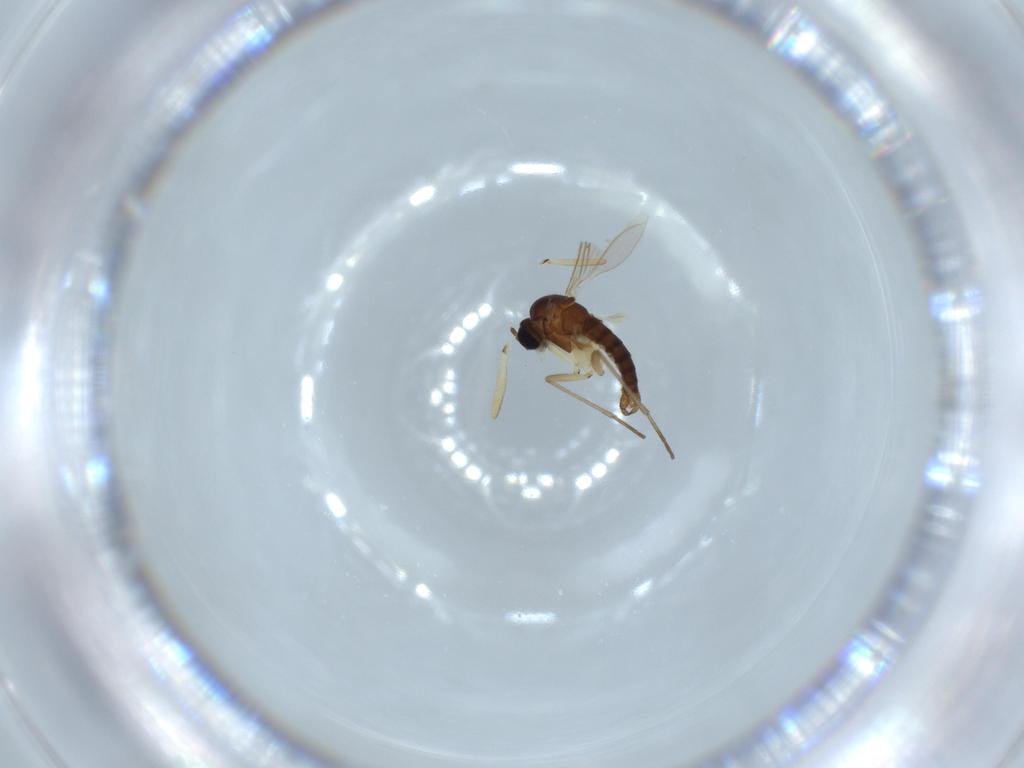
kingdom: Animalia
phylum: Arthropoda
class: Insecta
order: Diptera
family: Sciaridae
